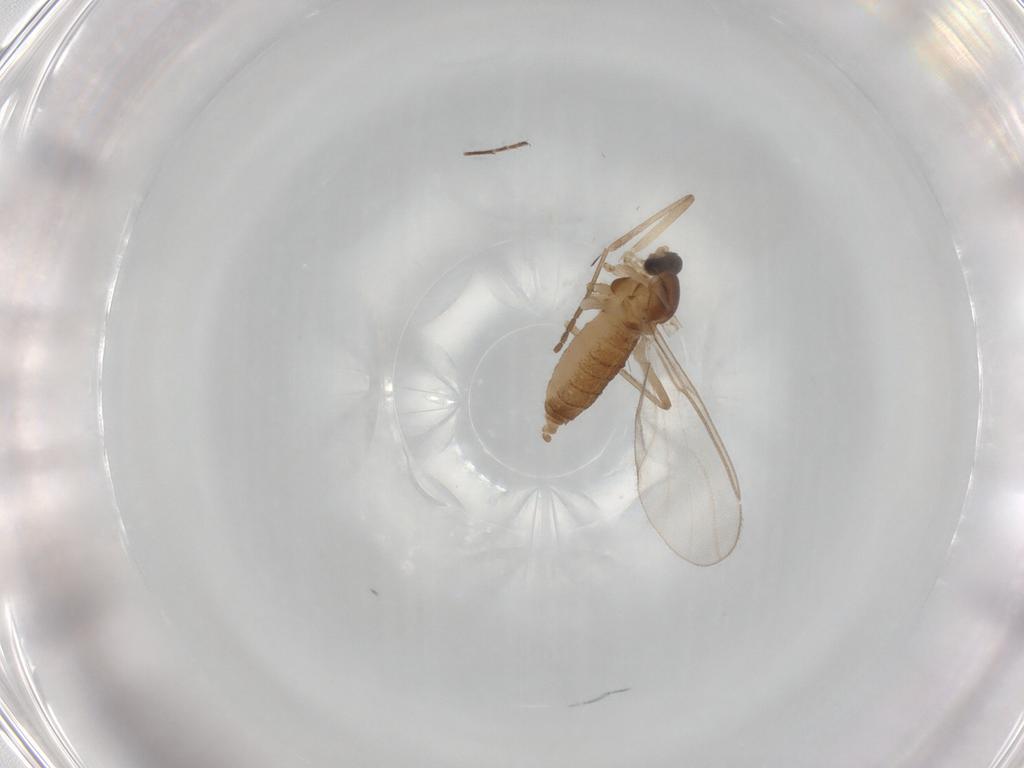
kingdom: Animalia
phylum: Arthropoda
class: Insecta
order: Diptera
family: Cecidomyiidae
